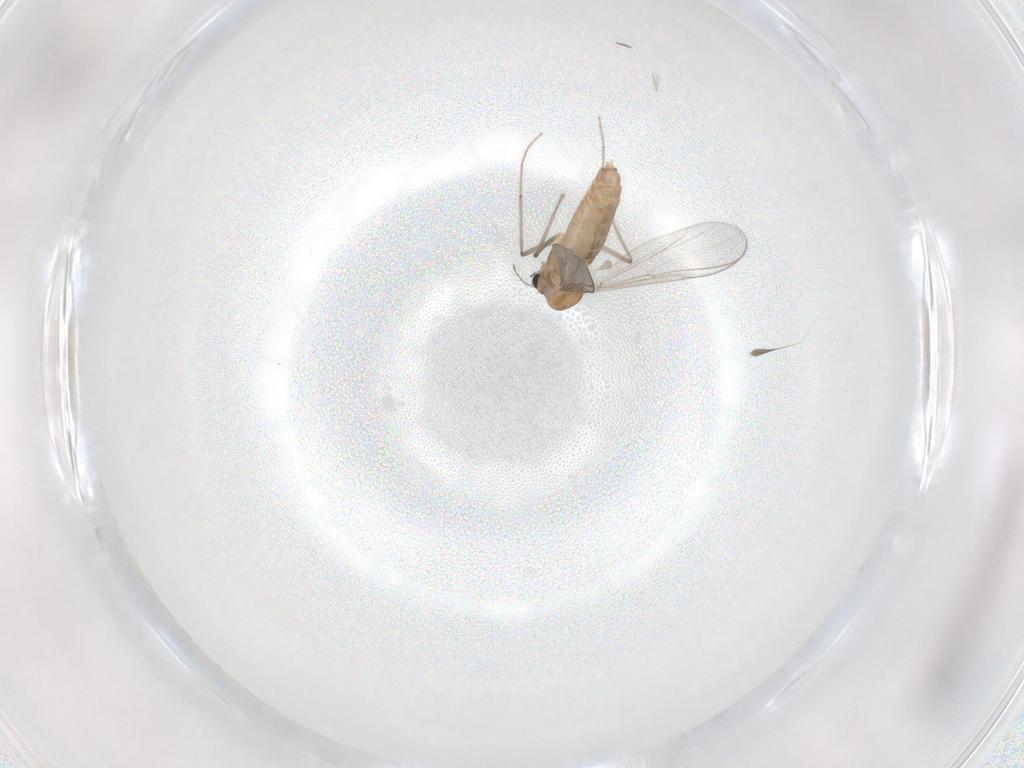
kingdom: Animalia
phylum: Arthropoda
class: Insecta
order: Diptera
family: Chironomidae
